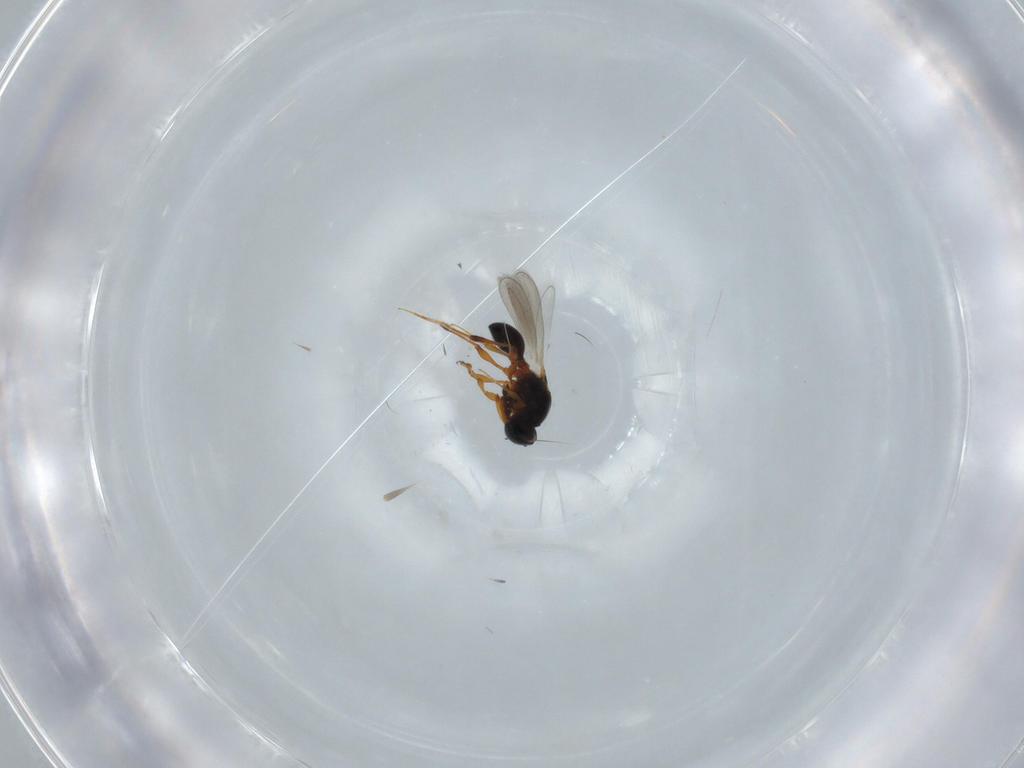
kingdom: Animalia
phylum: Arthropoda
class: Insecta
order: Hymenoptera
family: Platygastridae
